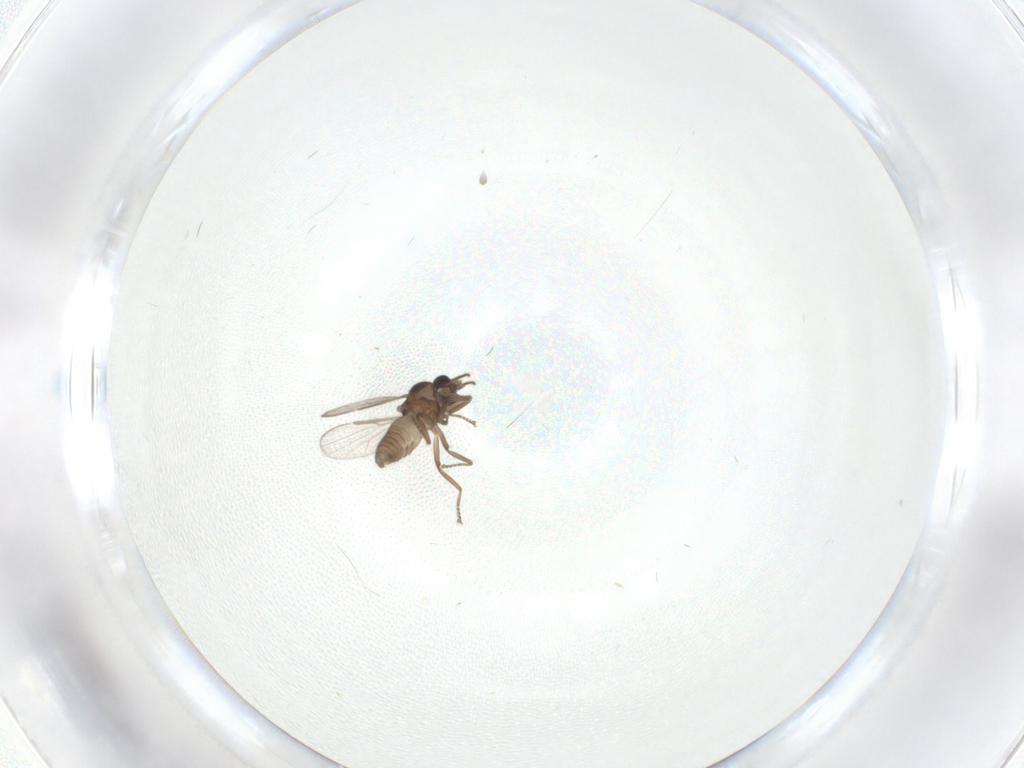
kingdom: Animalia
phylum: Arthropoda
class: Insecta
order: Diptera
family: Ceratopogonidae
